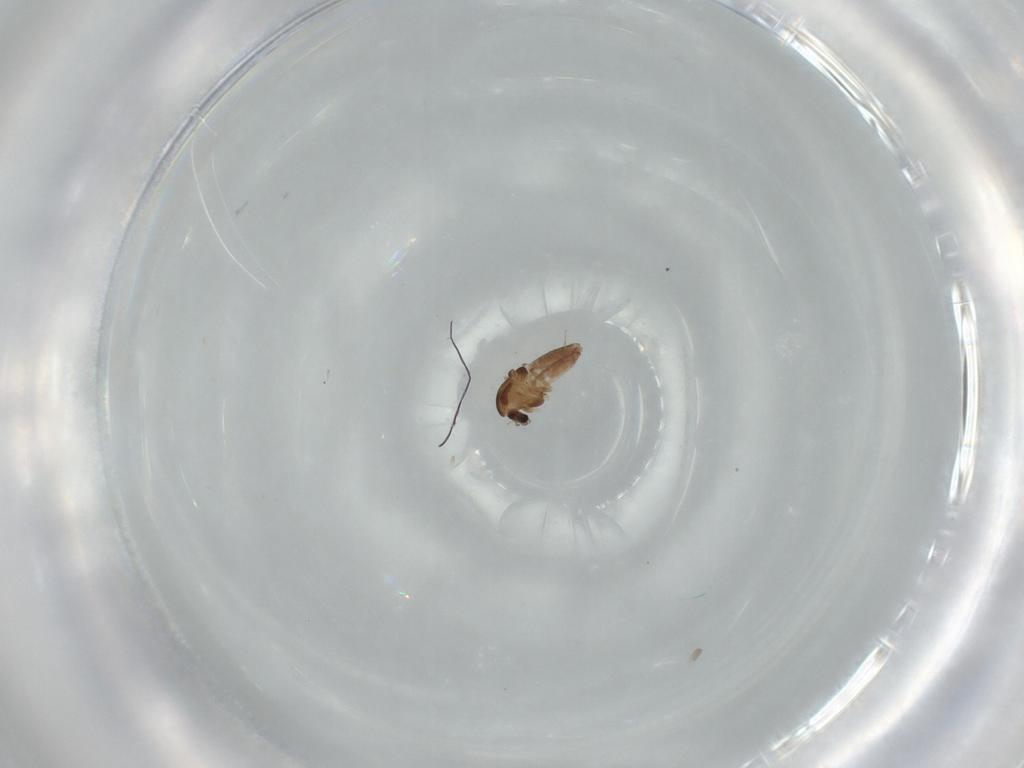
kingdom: Animalia
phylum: Arthropoda
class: Insecta
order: Diptera
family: Chironomidae
